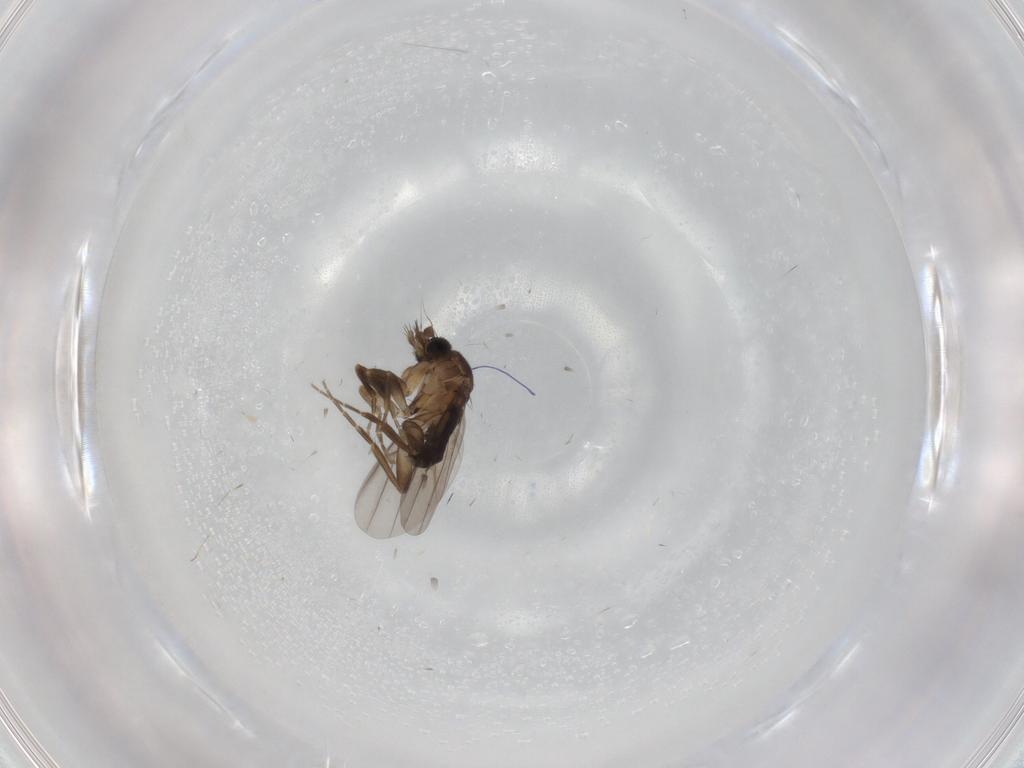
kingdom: Animalia
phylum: Arthropoda
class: Insecta
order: Diptera
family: Phoridae
